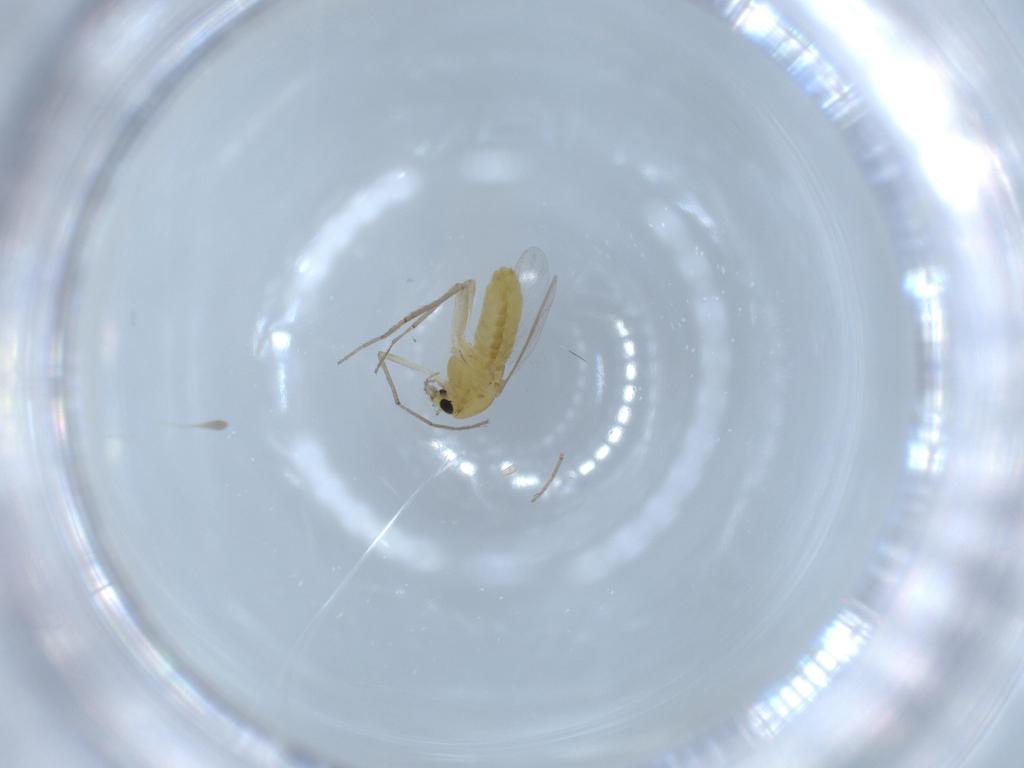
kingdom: Animalia
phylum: Arthropoda
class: Insecta
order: Diptera
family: Chironomidae
